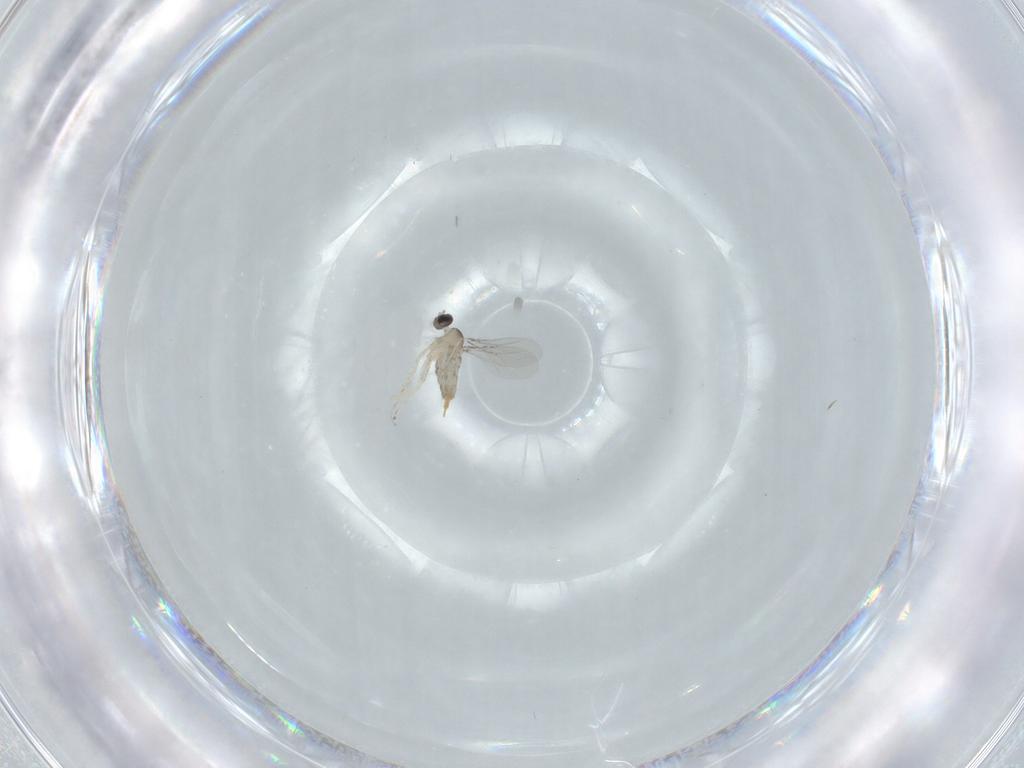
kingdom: Animalia
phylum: Arthropoda
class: Insecta
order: Diptera
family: Cecidomyiidae
